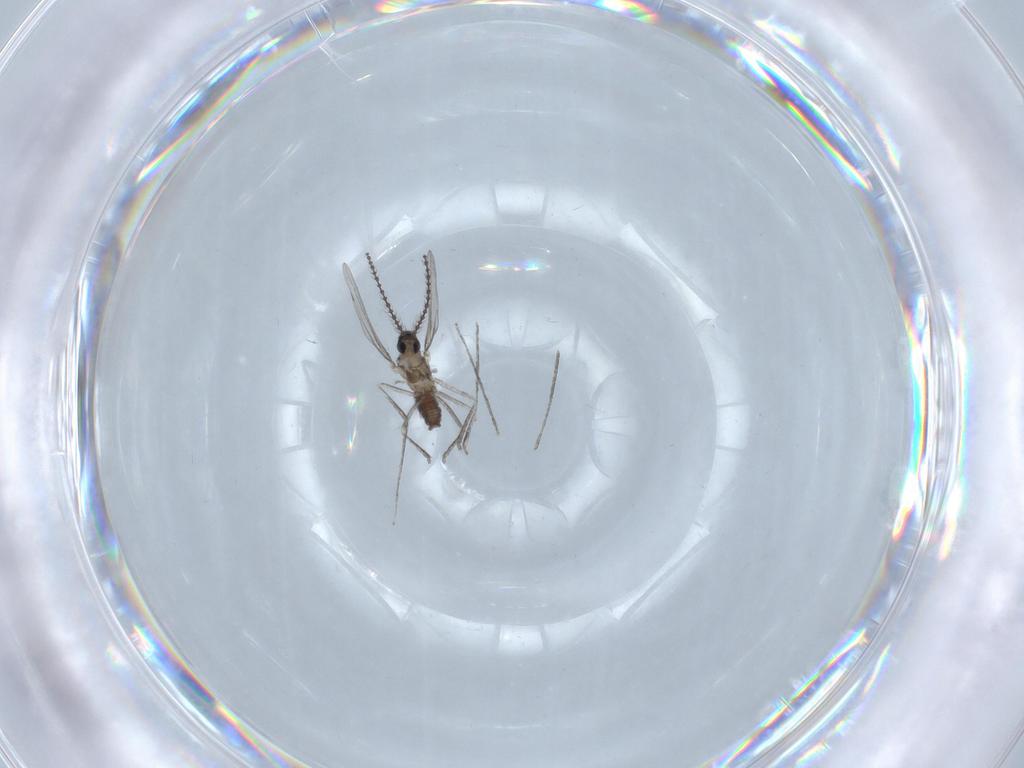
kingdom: Animalia
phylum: Arthropoda
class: Insecta
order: Diptera
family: Cecidomyiidae
